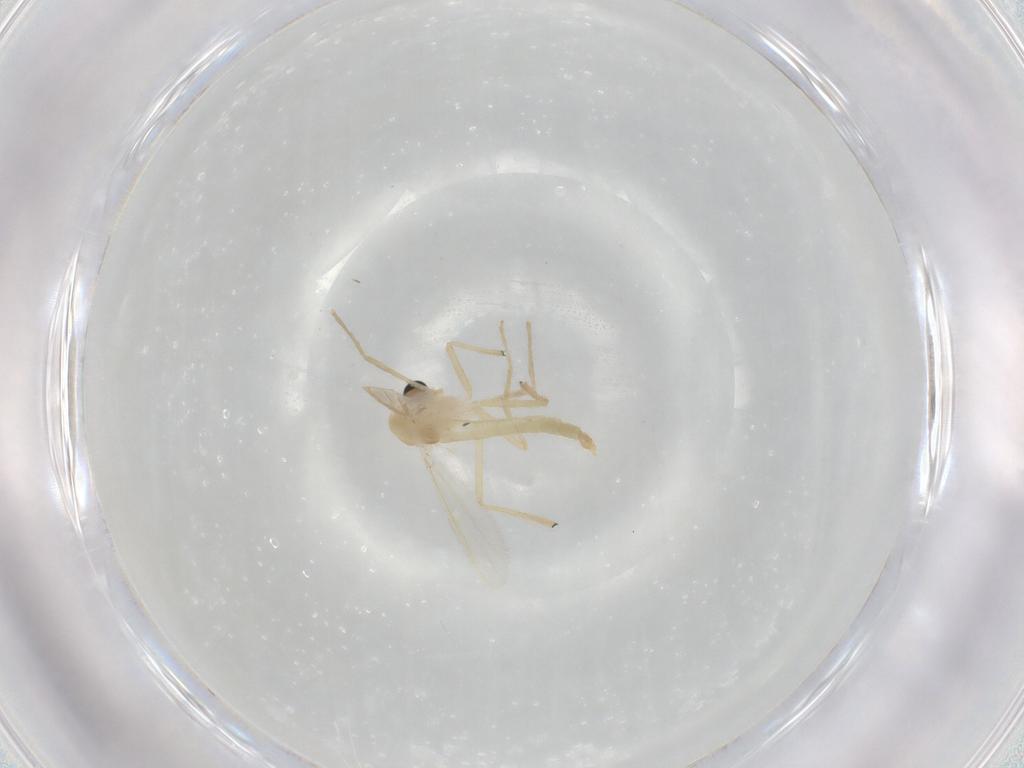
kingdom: Animalia
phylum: Arthropoda
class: Insecta
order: Diptera
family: Chironomidae
